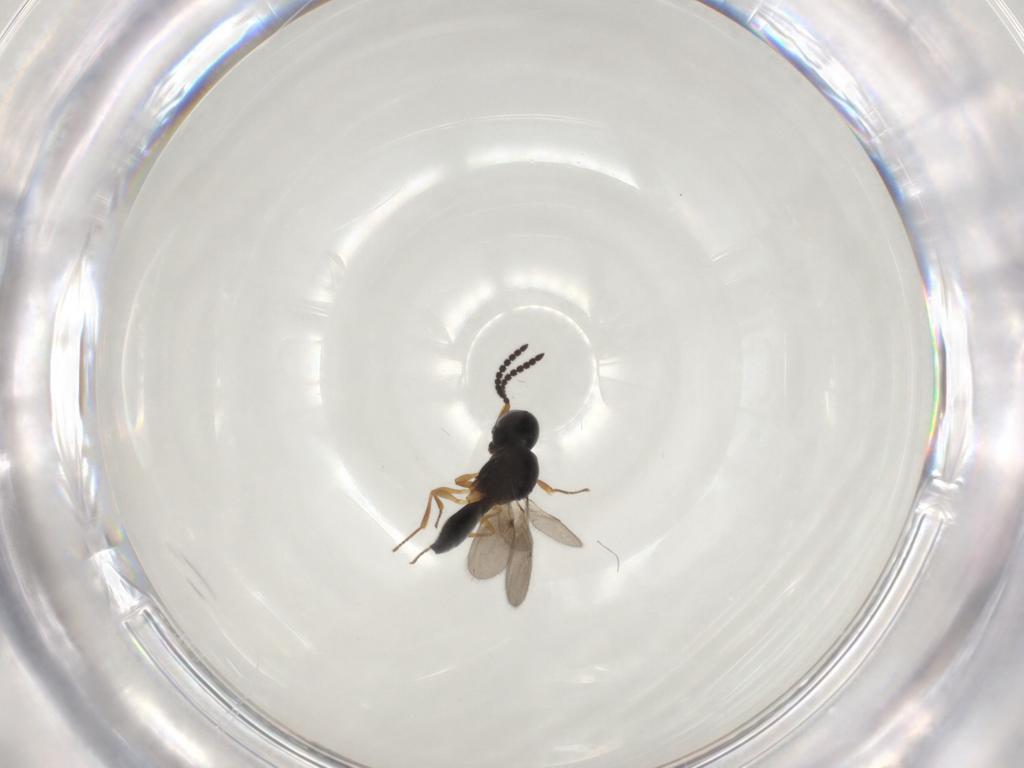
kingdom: Animalia
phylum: Arthropoda
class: Insecta
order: Hymenoptera
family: Scelionidae
